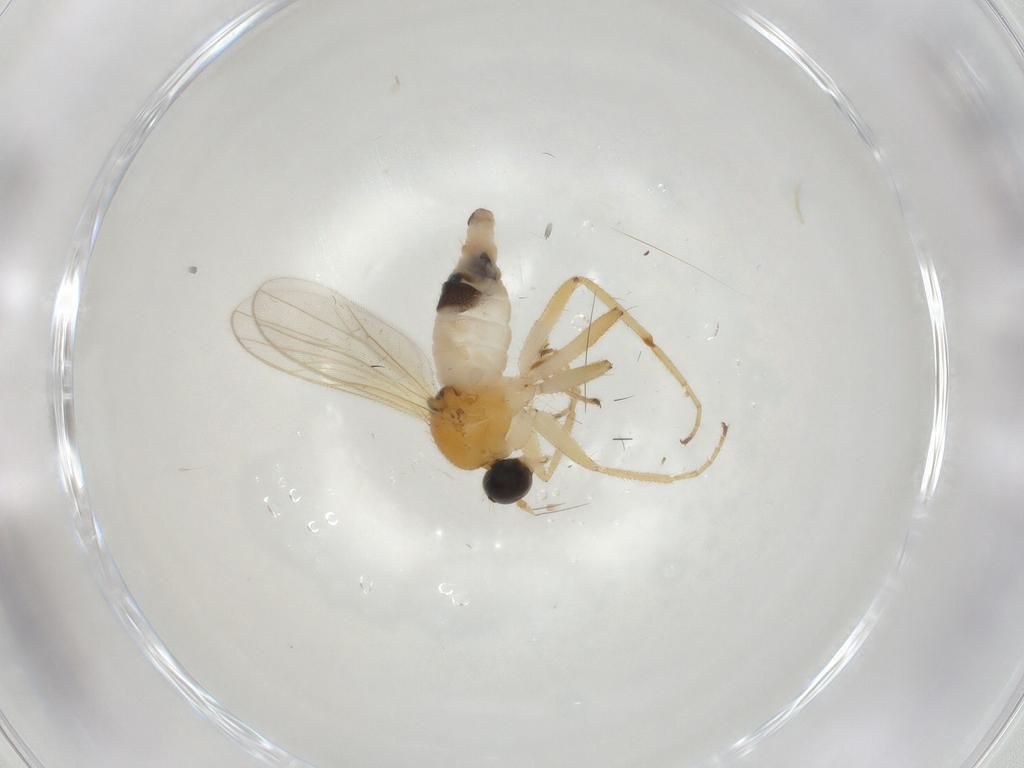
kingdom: Animalia
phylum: Arthropoda
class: Insecta
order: Diptera
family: Hybotidae
